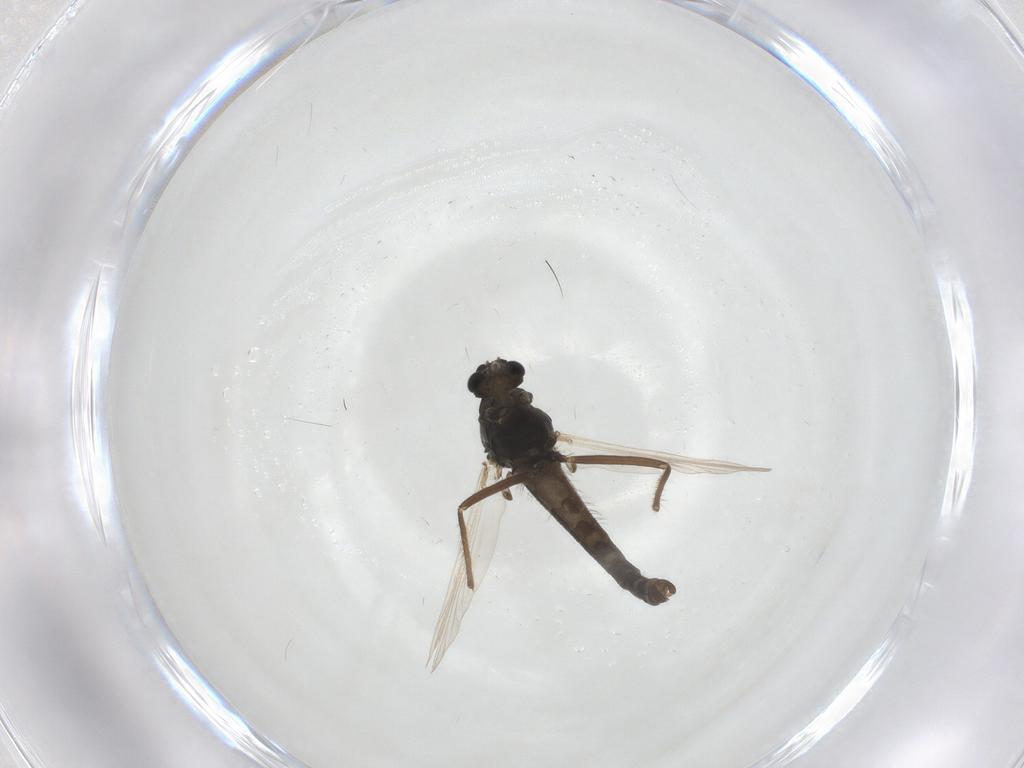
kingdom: Animalia
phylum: Arthropoda
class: Insecta
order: Diptera
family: Chironomidae
